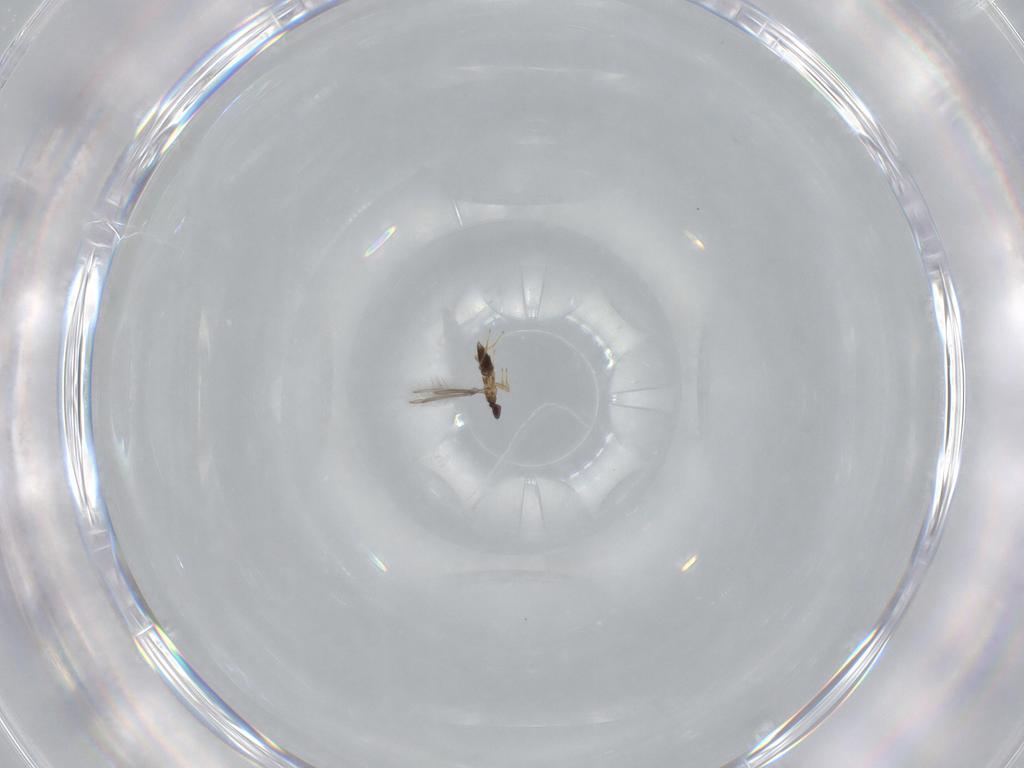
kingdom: Animalia
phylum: Arthropoda
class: Insecta
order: Hymenoptera
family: Mymaridae
